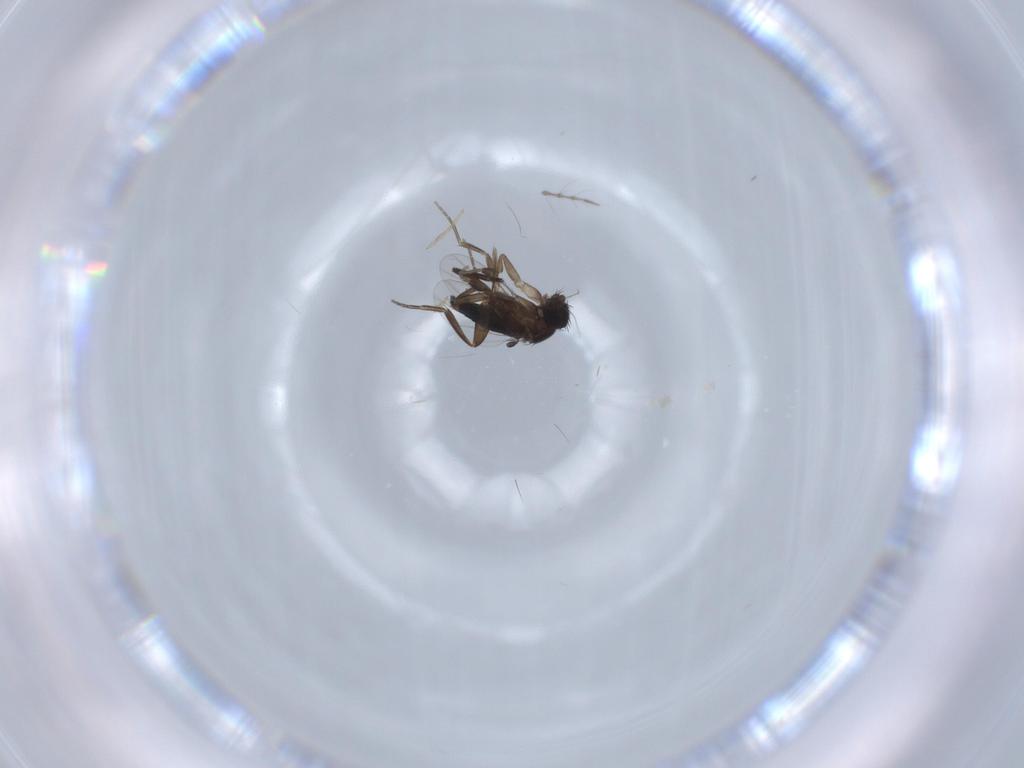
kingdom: Animalia
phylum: Arthropoda
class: Insecta
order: Diptera
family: Phoridae
